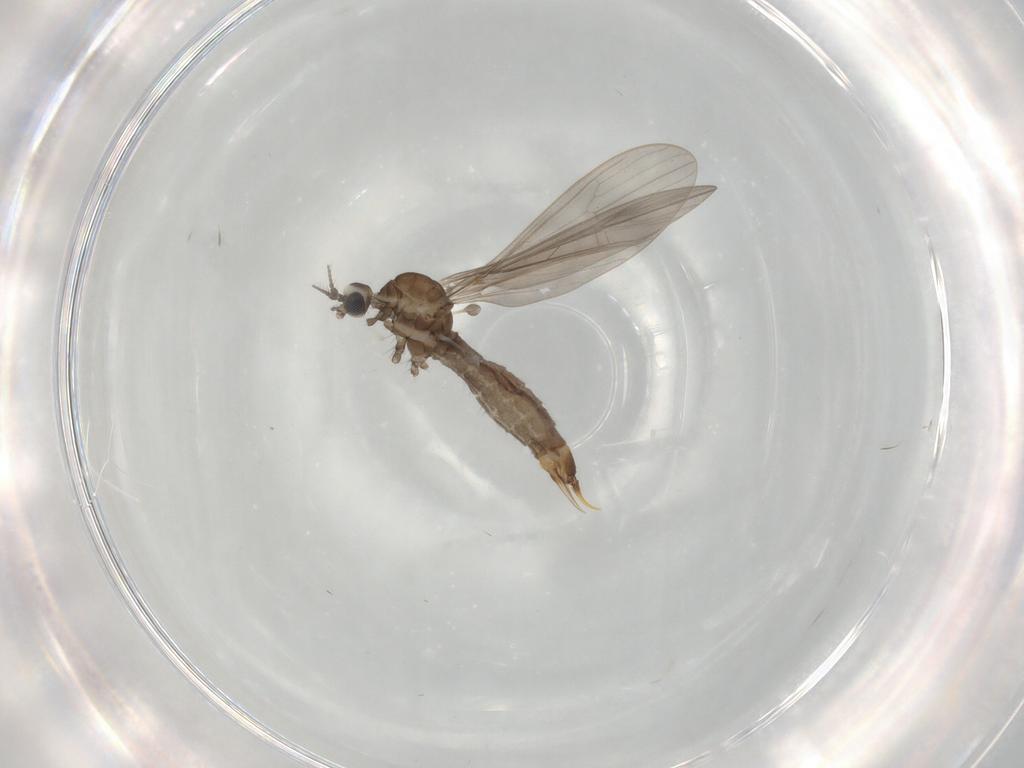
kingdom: Animalia
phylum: Arthropoda
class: Insecta
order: Diptera
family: Limoniidae
